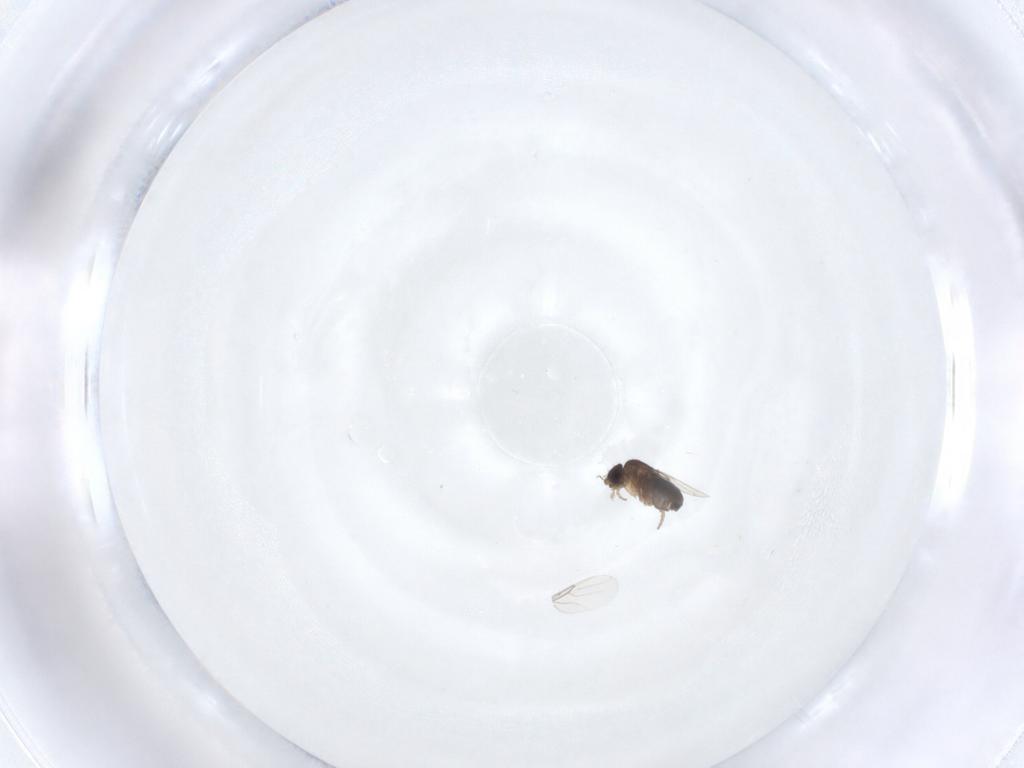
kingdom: Animalia
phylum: Arthropoda
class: Insecta
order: Diptera
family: Phoridae
